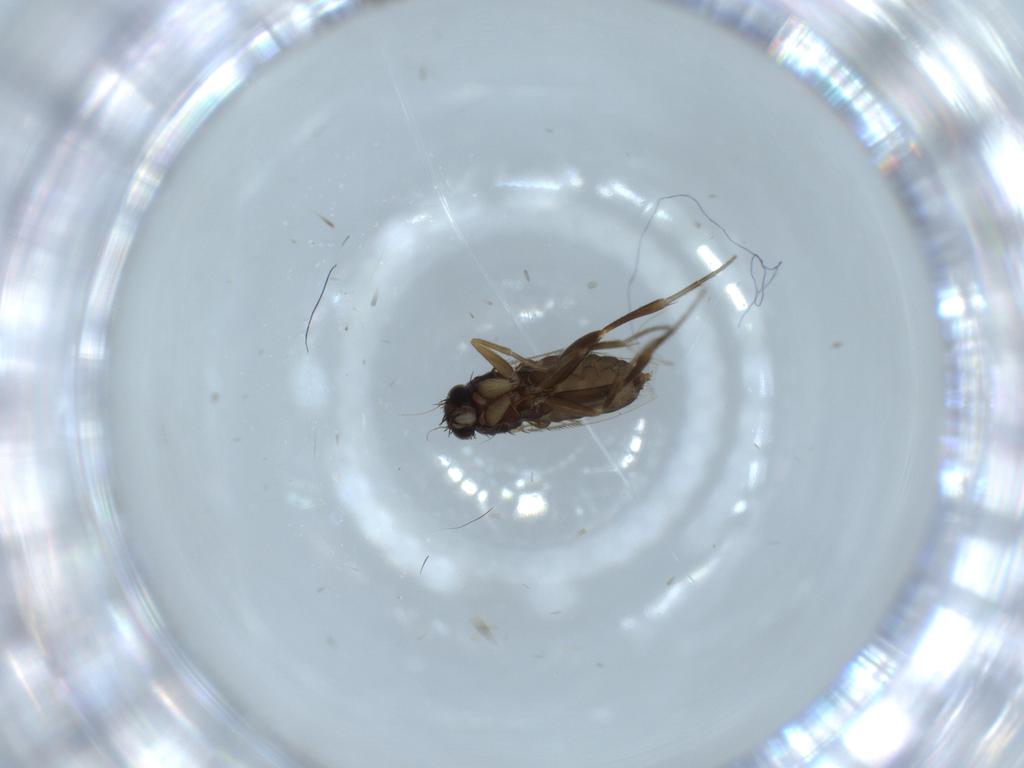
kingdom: Animalia
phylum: Arthropoda
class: Insecta
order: Diptera
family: Phoridae
